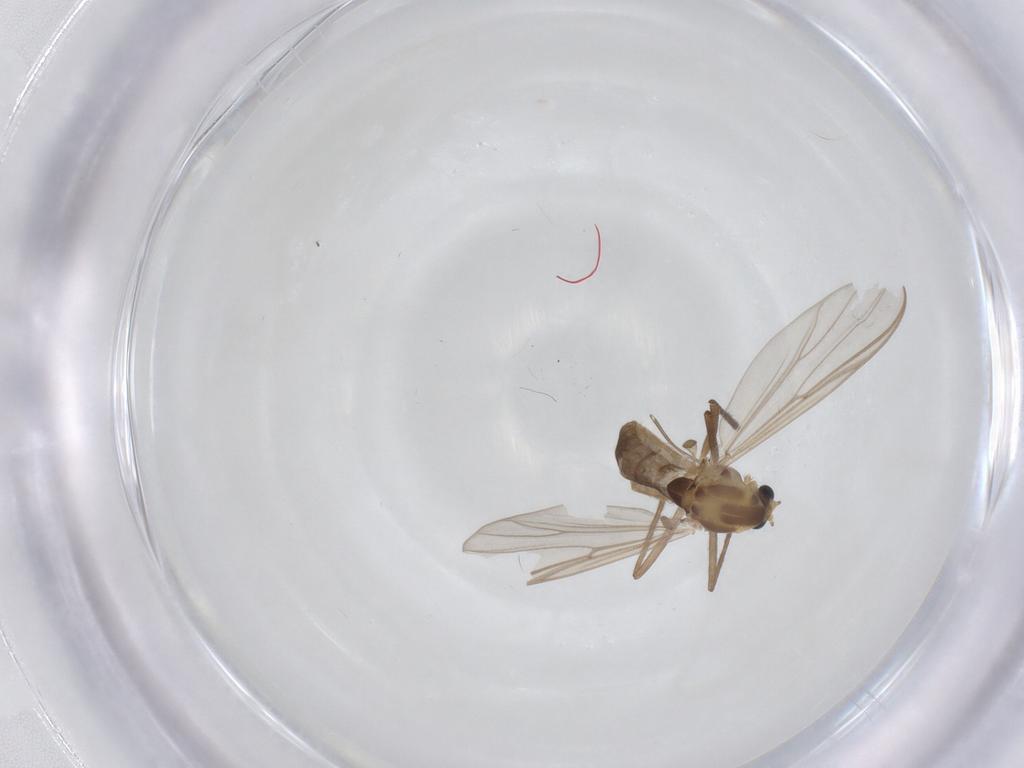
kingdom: Animalia
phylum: Arthropoda
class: Insecta
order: Diptera
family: Chironomidae
